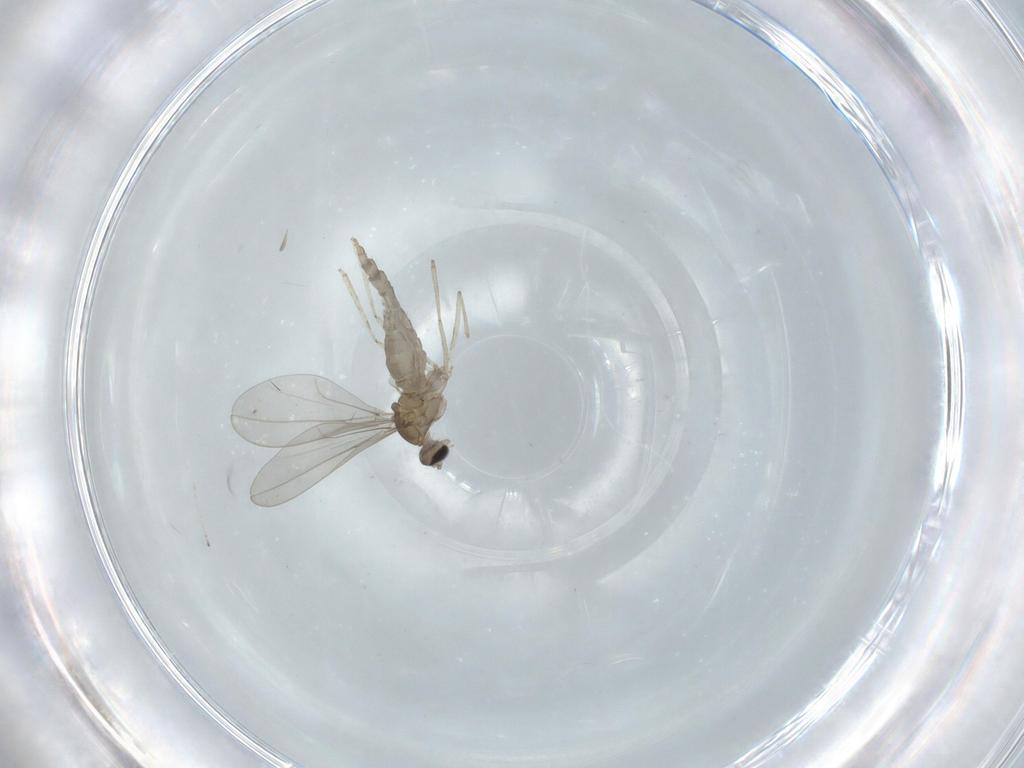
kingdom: Animalia
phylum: Arthropoda
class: Insecta
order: Diptera
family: Cecidomyiidae
